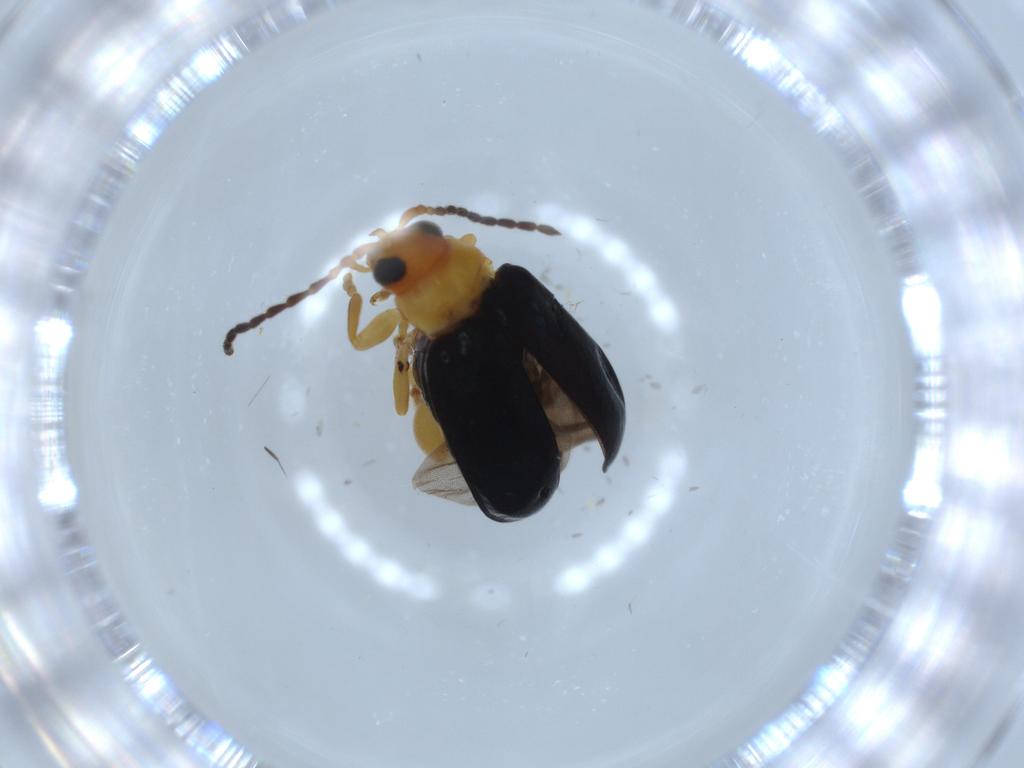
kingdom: Animalia
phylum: Arthropoda
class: Insecta
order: Coleoptera
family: Chrysomelidae
